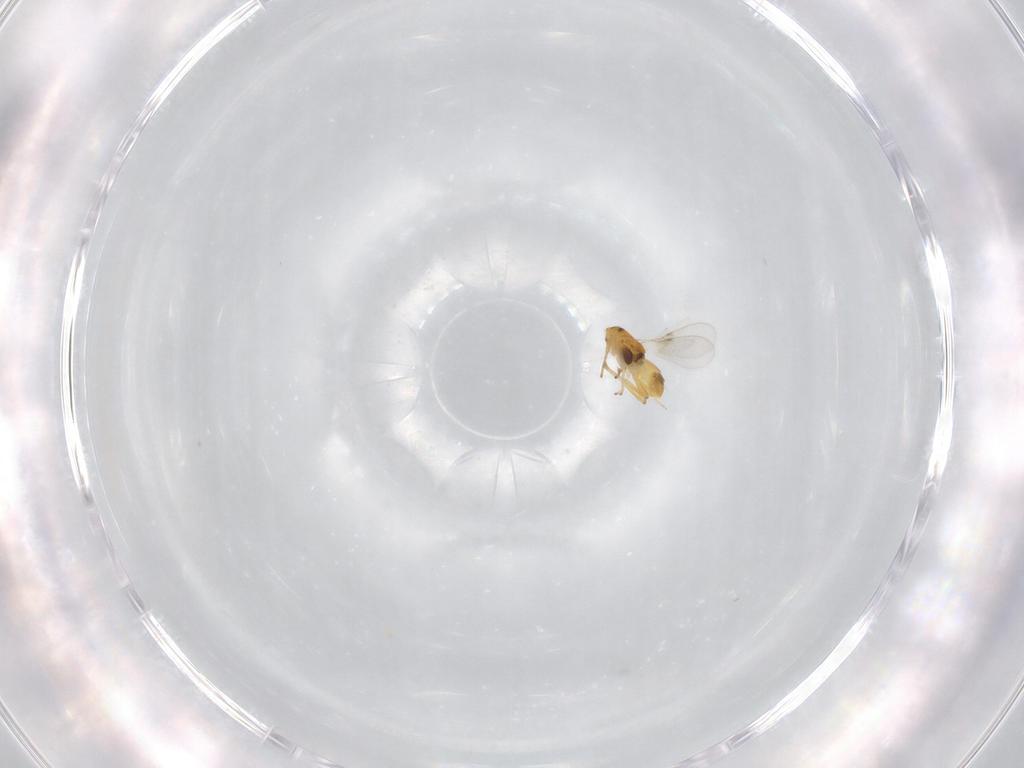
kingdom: Animalia
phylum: Arthropoda
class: Insecta
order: Hymenoptera
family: Encyrtidae
